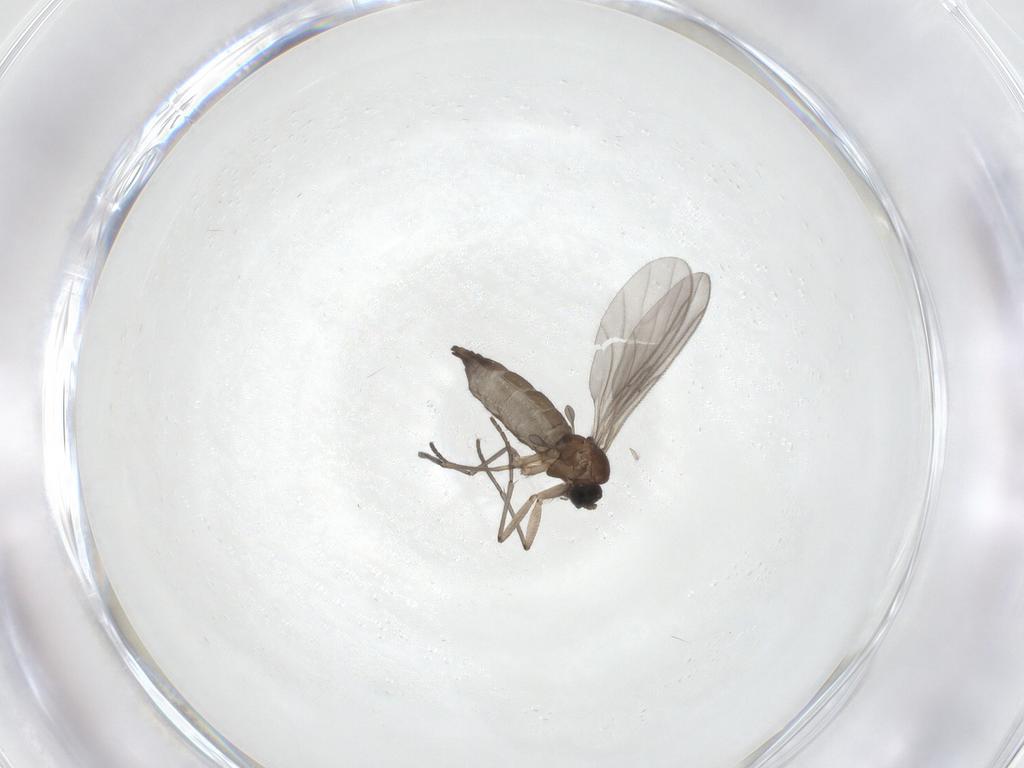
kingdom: Animalia
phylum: Arthropoda
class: Insecta
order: Diptera
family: Sciaridae
